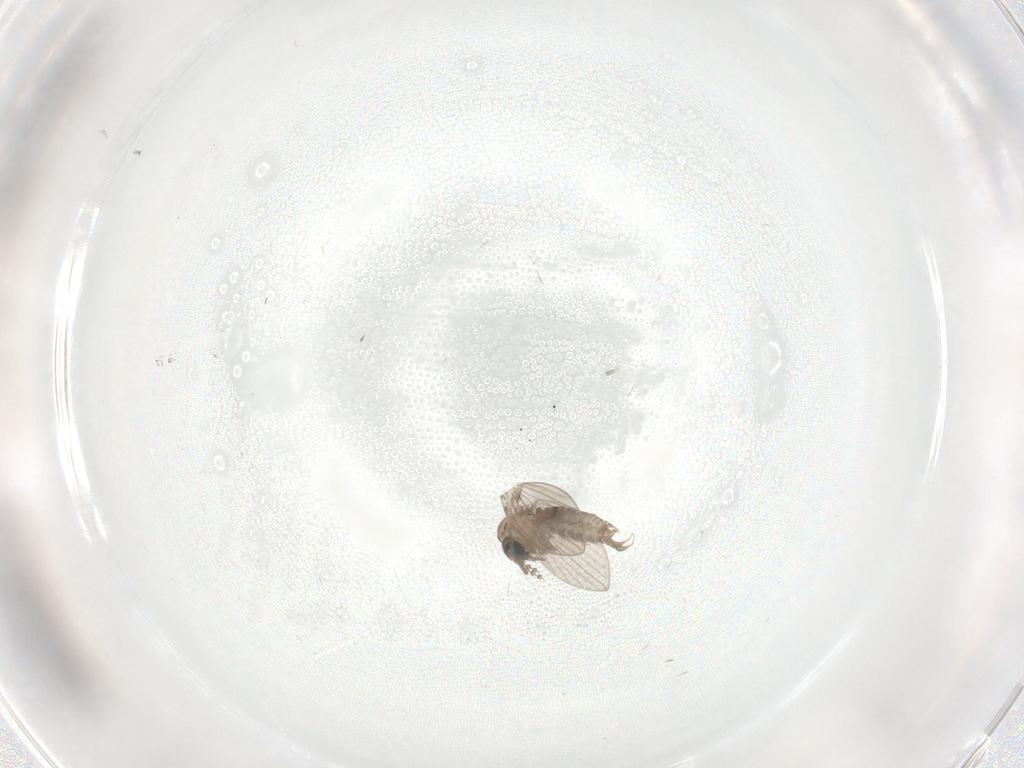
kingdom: Animalia
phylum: Arthropoda
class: Insecta
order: Diptera
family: Psychodidae
